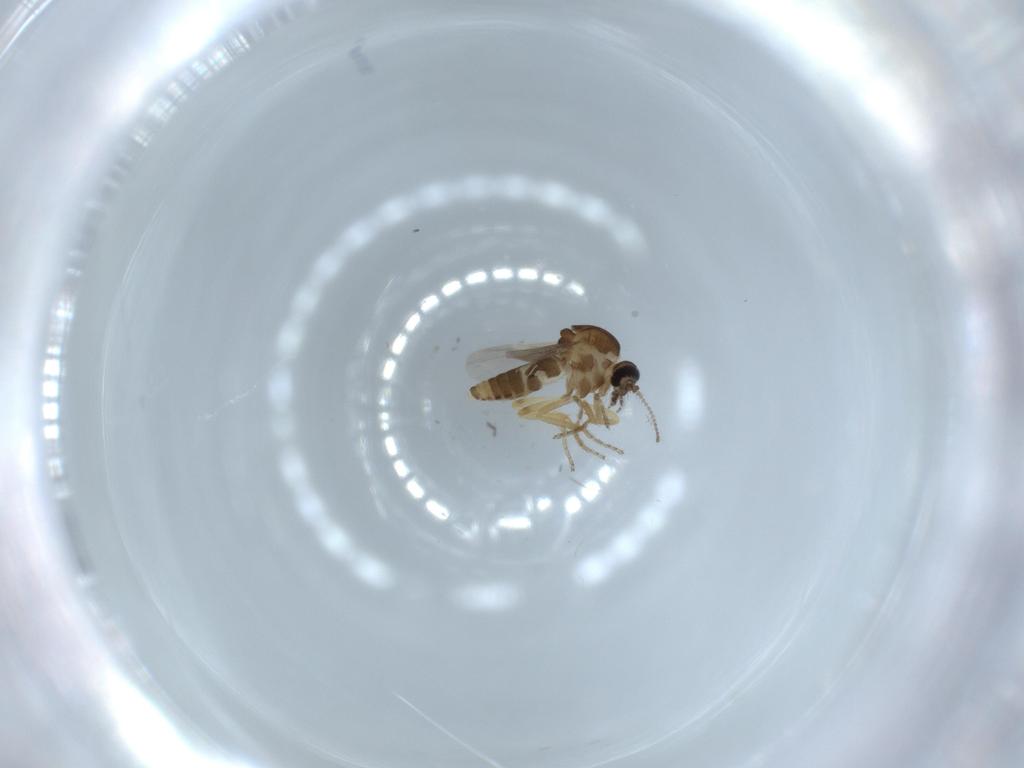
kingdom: Animalia
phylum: Arthropoda
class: Insecta
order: Diptera
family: Ceratopogonidae
